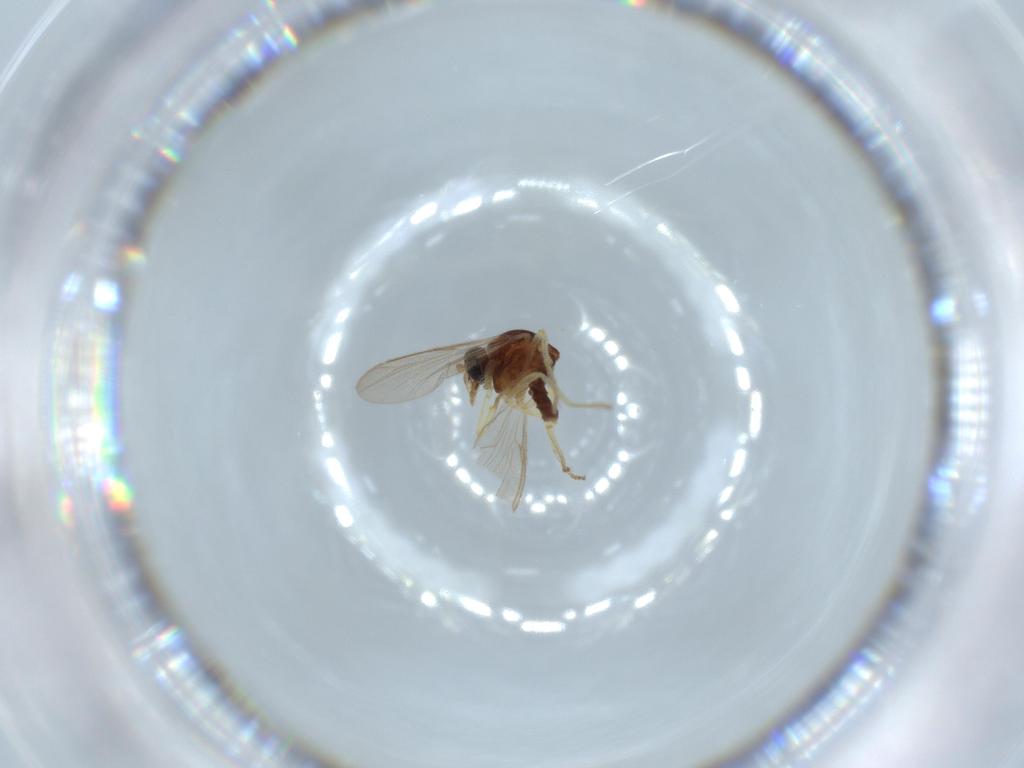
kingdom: Animalia
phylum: Arthropoda
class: Insecta
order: Diptera
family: Ceratopogonidae
